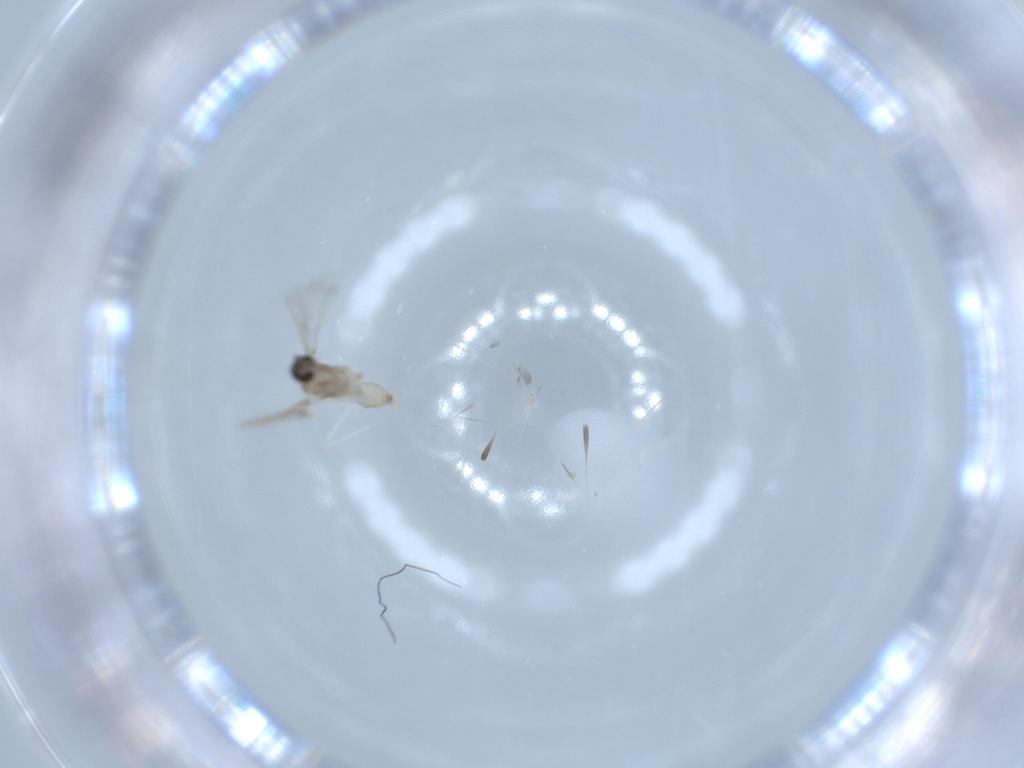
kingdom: Animalia
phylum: Arthropoda
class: Insecta
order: Diptera
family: Cecidomyiidae
